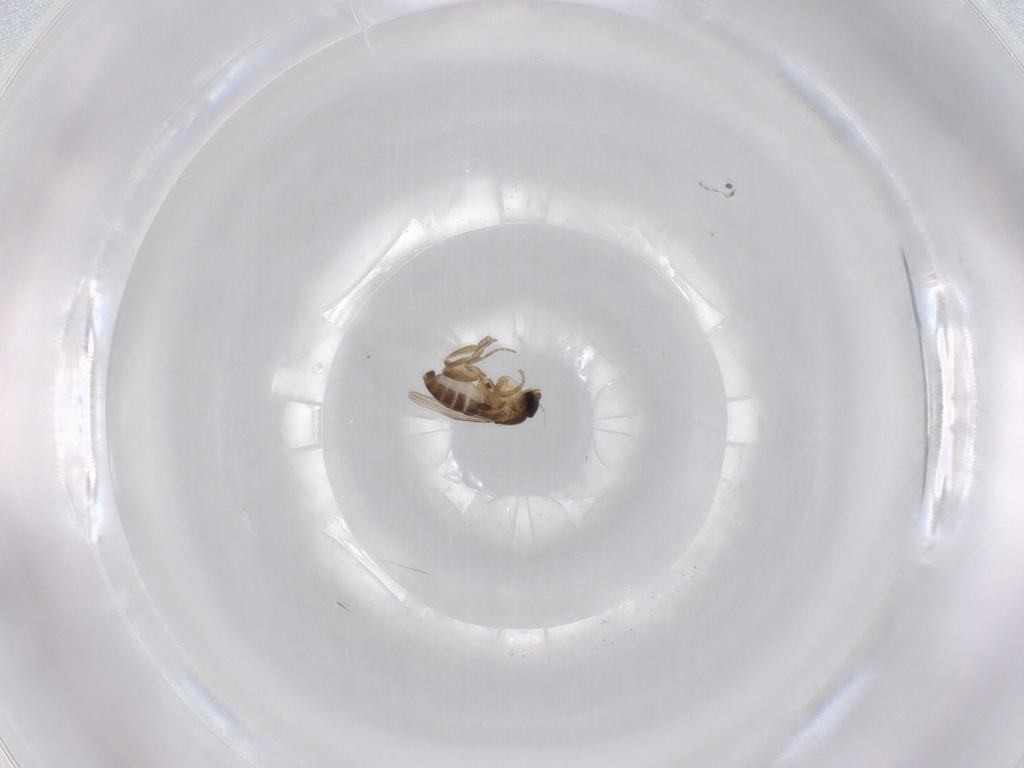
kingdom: Animalia
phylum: Arthropoda
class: Insecta
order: Diptera
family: Phoridae
